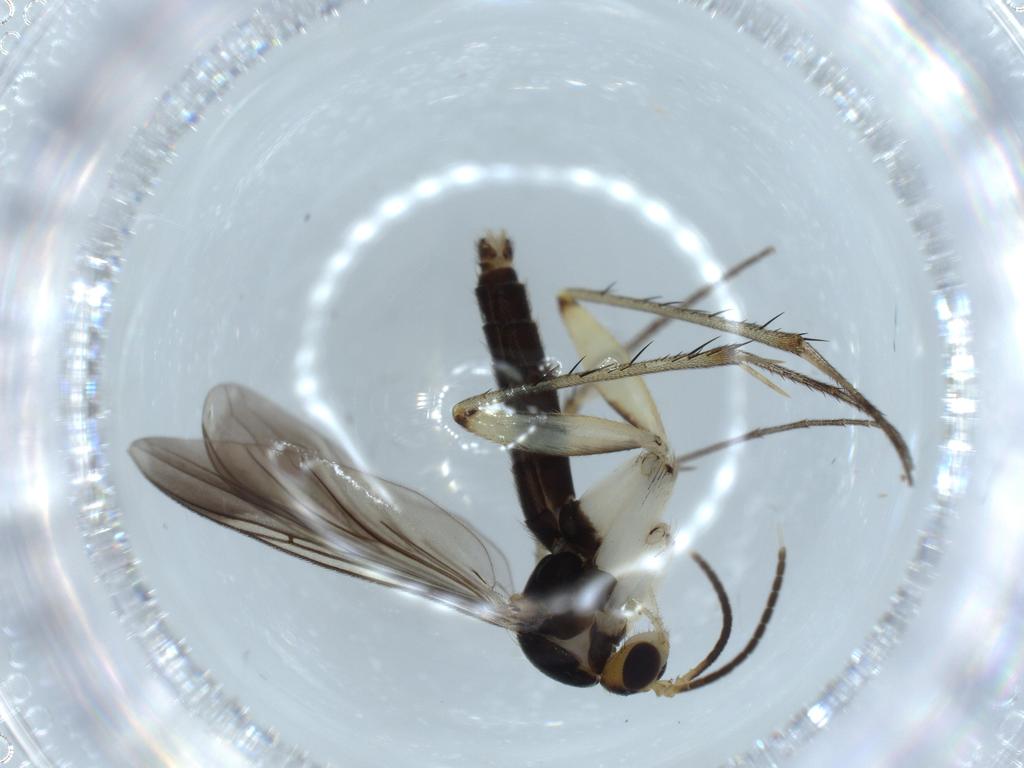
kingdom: Animalia
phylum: Arthropoda
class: Insecta
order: Diptera
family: Mycetophilidae
